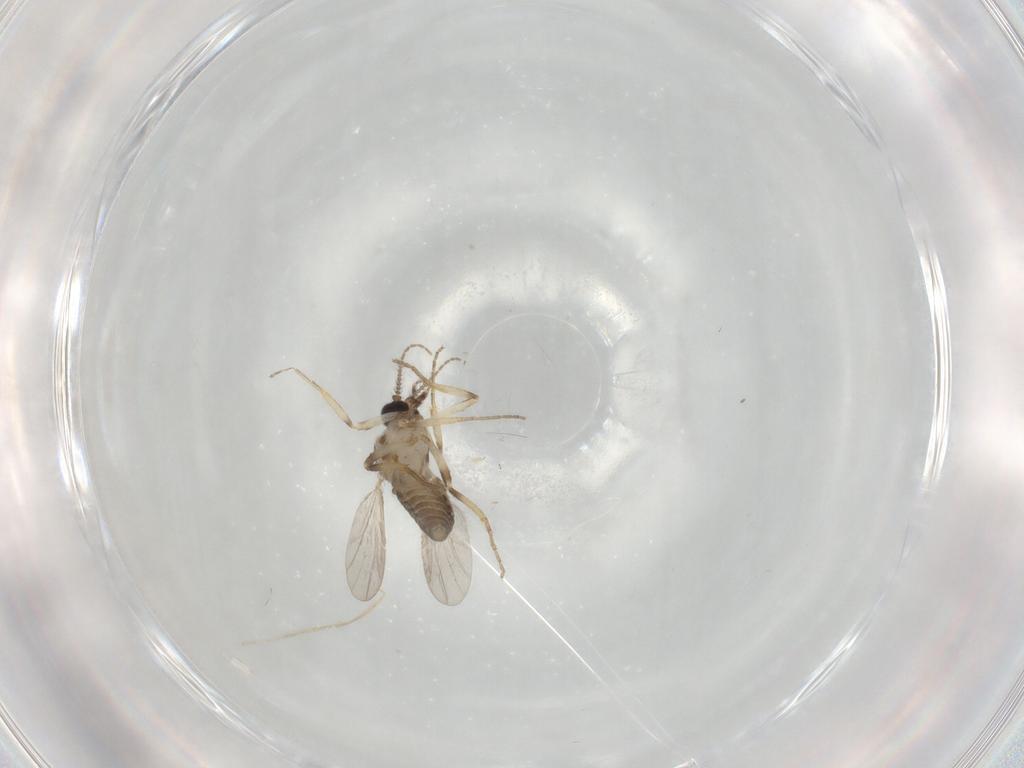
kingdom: Animalia
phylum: Arthropoda
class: Insecta
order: Diptera
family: Ceratopogonidae
